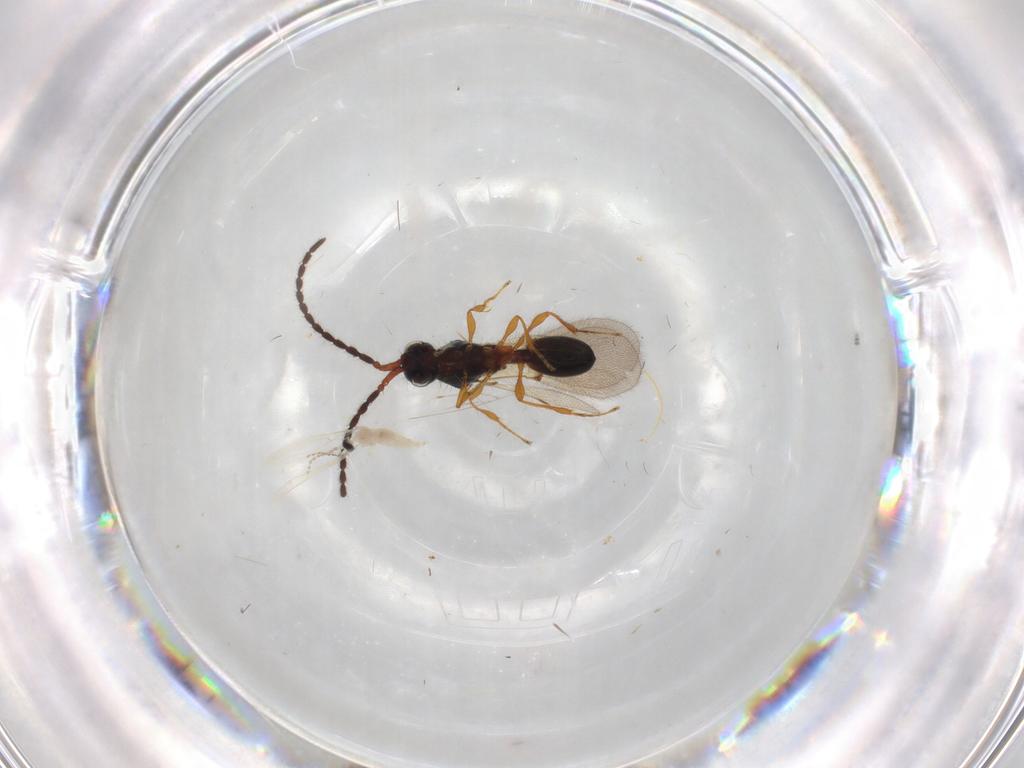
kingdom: Animalia
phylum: Arthropoda
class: Insecta
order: Diptera
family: Cecidomyiidae
